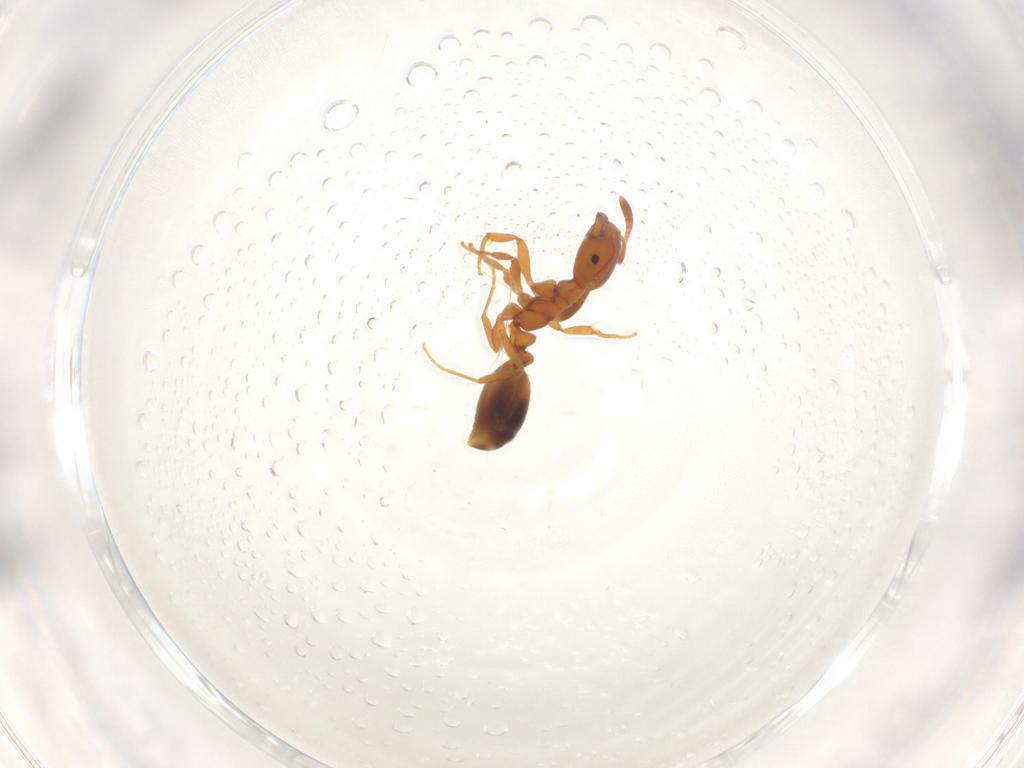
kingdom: Animalia
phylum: Arthropoda
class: Insecta
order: Hymenoptera
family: Formicidae
